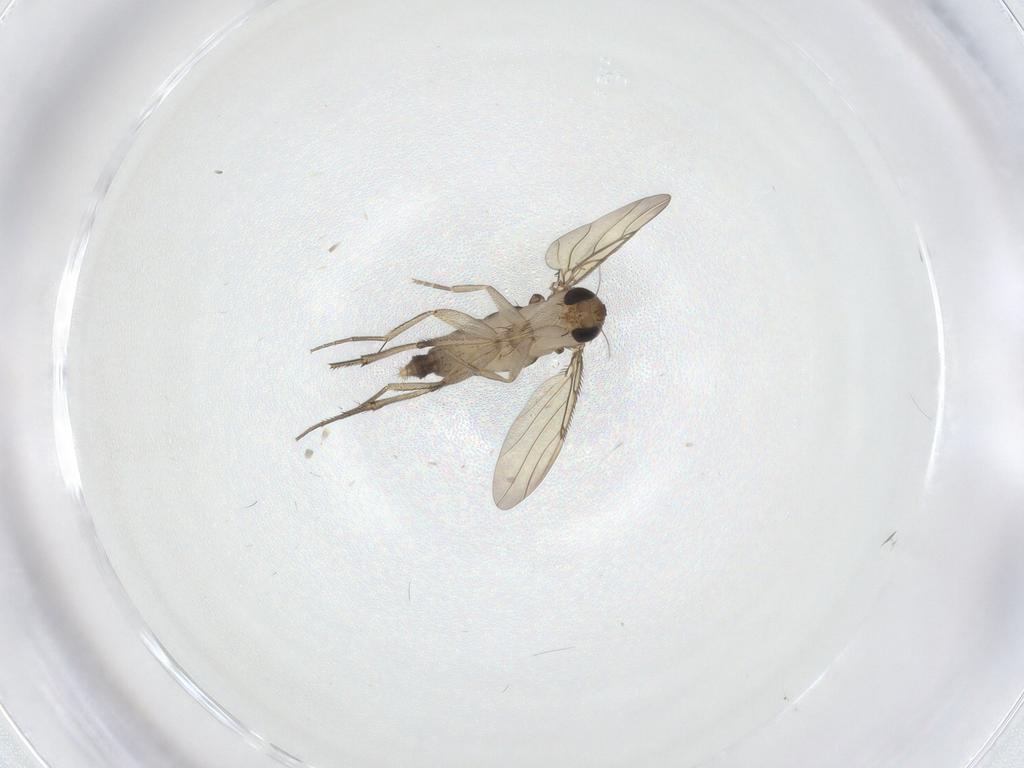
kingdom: Animalia
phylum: Arthropoda
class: Insecta
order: Diptera
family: Phoridae
